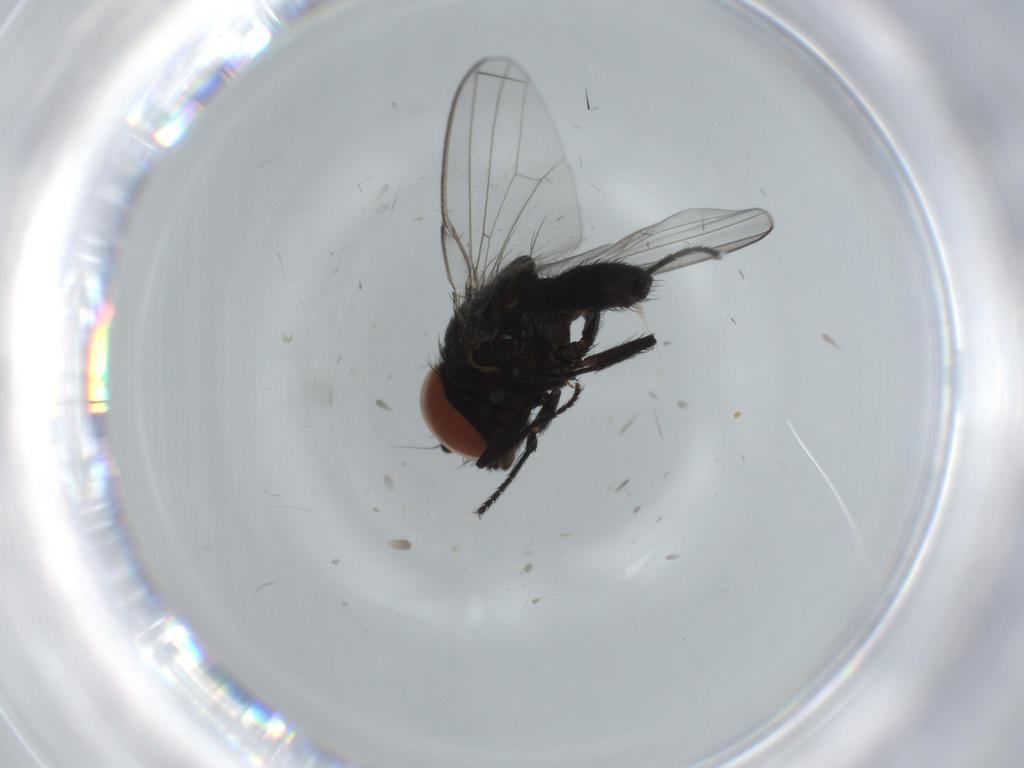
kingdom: Animalia
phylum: Arthropoda
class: Insecta
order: Diptera
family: Milichiidae
